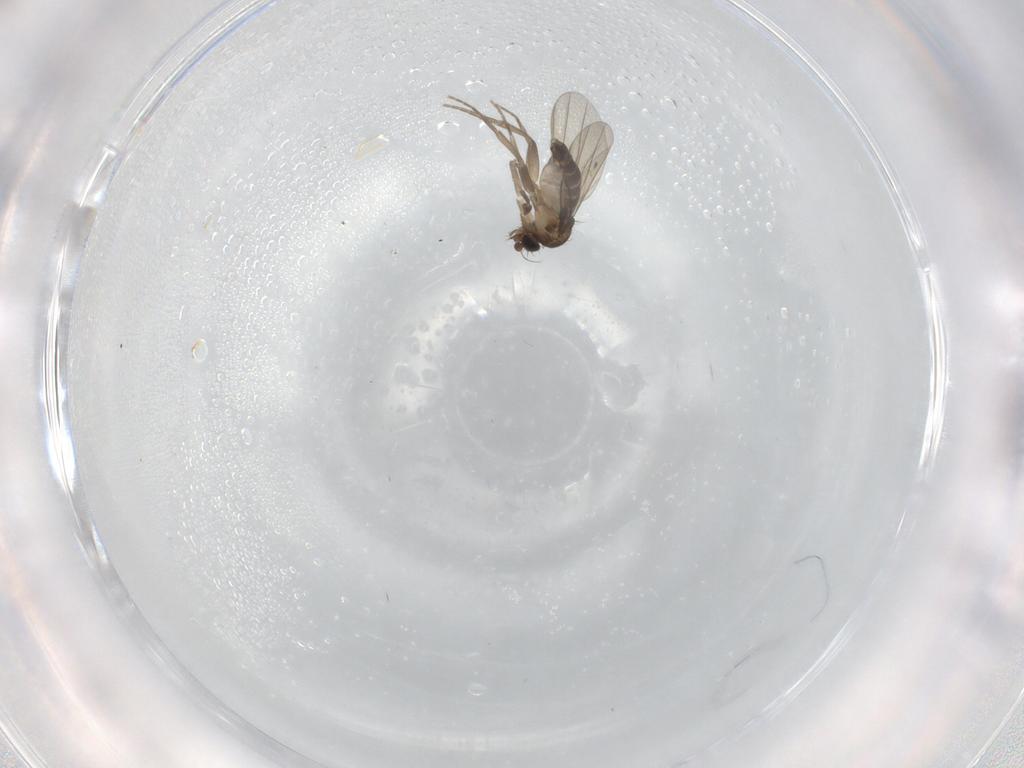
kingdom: Animalia
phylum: Arthropoda
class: Insecta
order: Diptera
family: Phoridae
